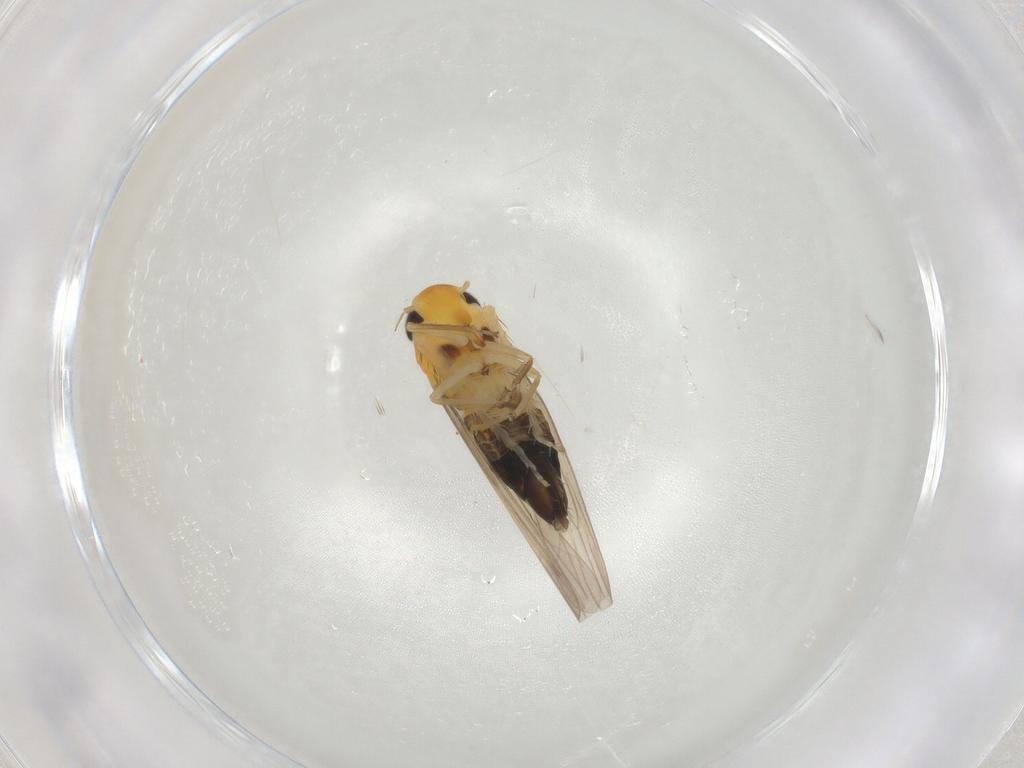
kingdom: Animalia
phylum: Arthropoda
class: Insecta
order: Hemiptera
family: Cicadellidae
